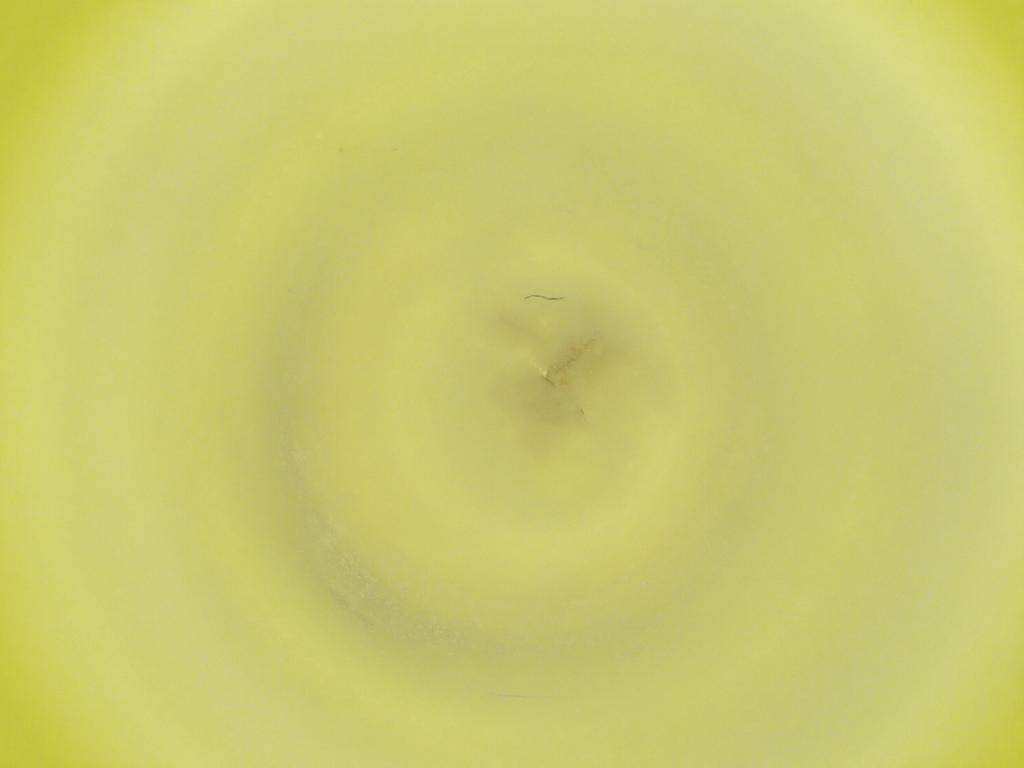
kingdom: Animalia
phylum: Arthropoda
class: Insecta
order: Diptera
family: Cecidomyiidae
